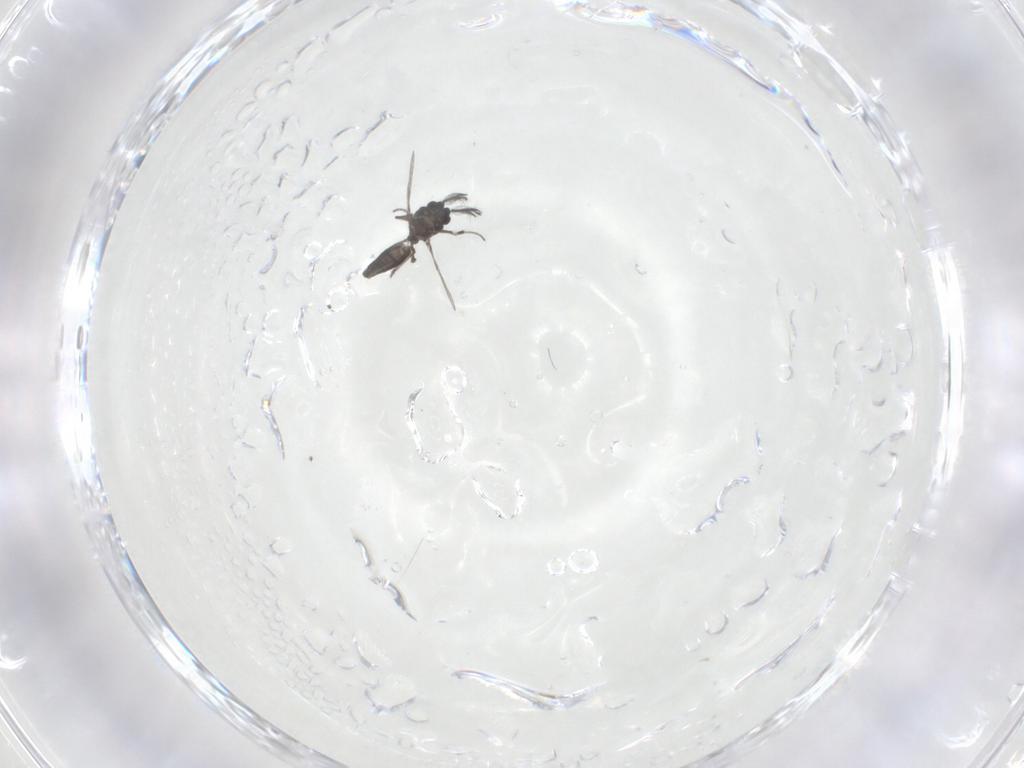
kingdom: Animalia
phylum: Arthropoda
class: Insecta
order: Diptera
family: Ceratopogonidae
